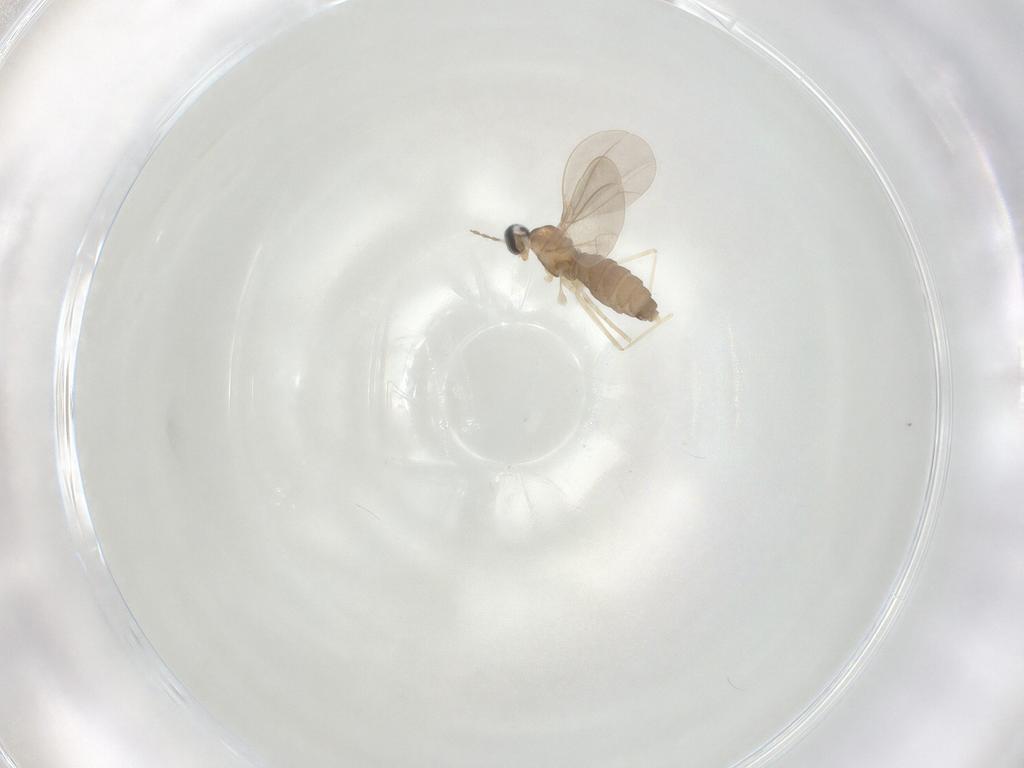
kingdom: Animalia
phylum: Arthropoda
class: Insecta
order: Diptera
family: Cecidomyiidae
